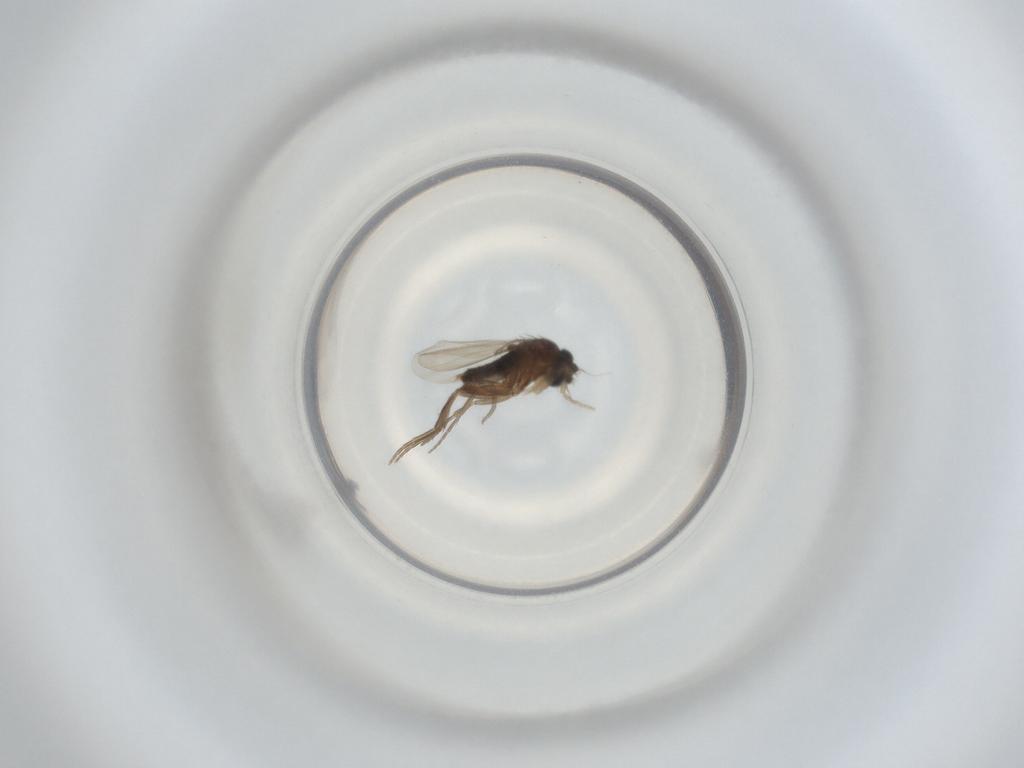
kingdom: Animalia
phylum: Arthropoda
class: Insecta
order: Diptera
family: Phoridae
